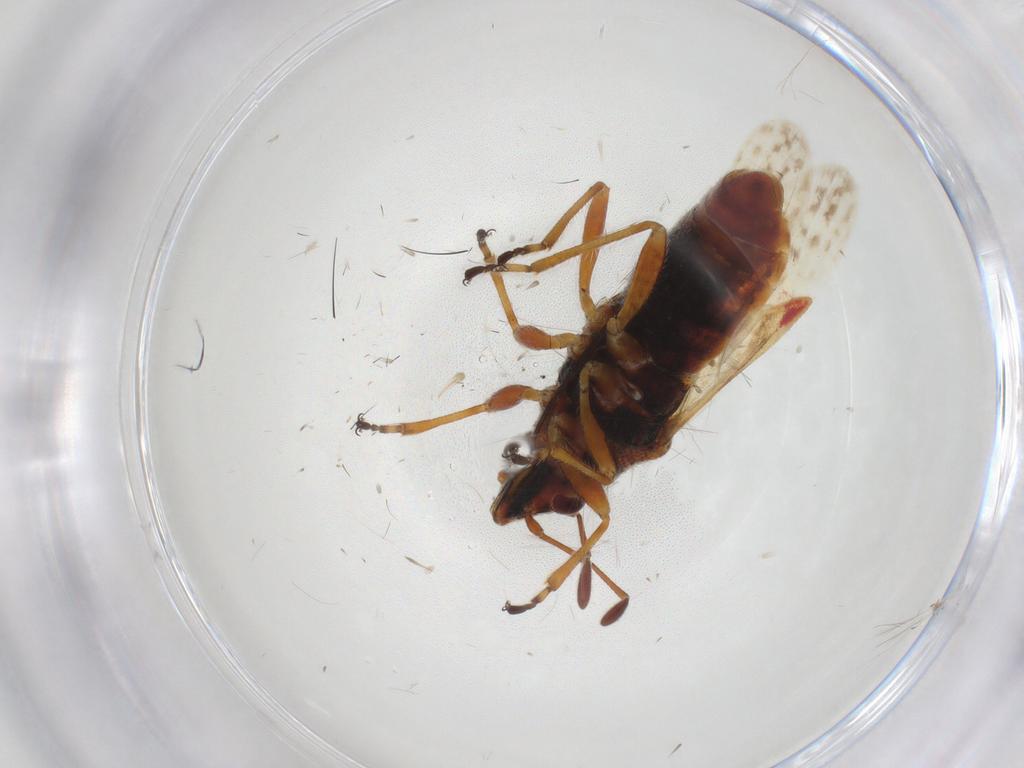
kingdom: Animalia
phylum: Arthropoda
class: Insecta
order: Hemiptera
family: Lygaeidae
